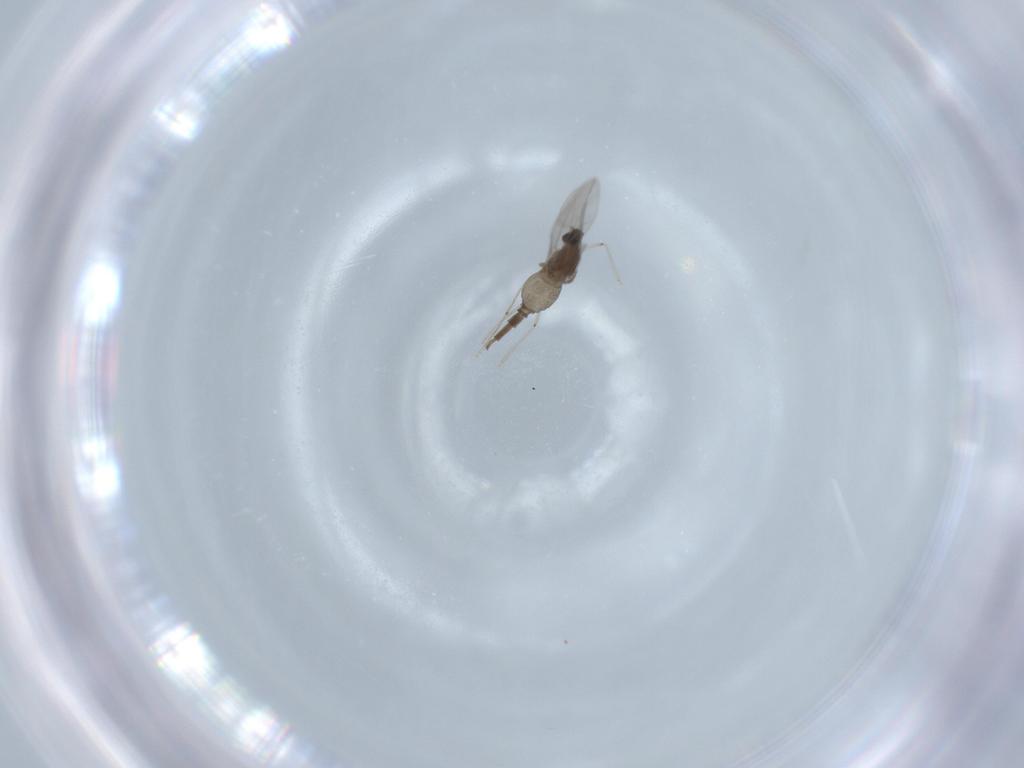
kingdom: Animalia
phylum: Arthropoda
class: Insecta
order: Diptera
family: Cecidomyiidae
